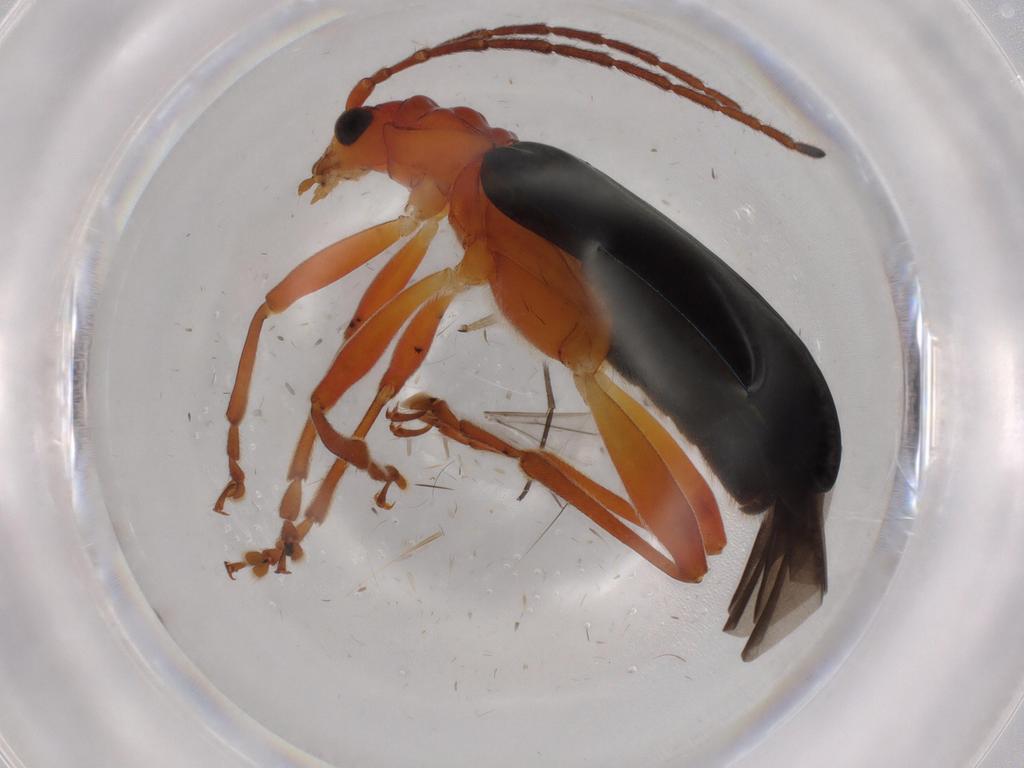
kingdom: Animalia
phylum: Arthropoda
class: Insecta
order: Coleoptera
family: Chrysomelidae
